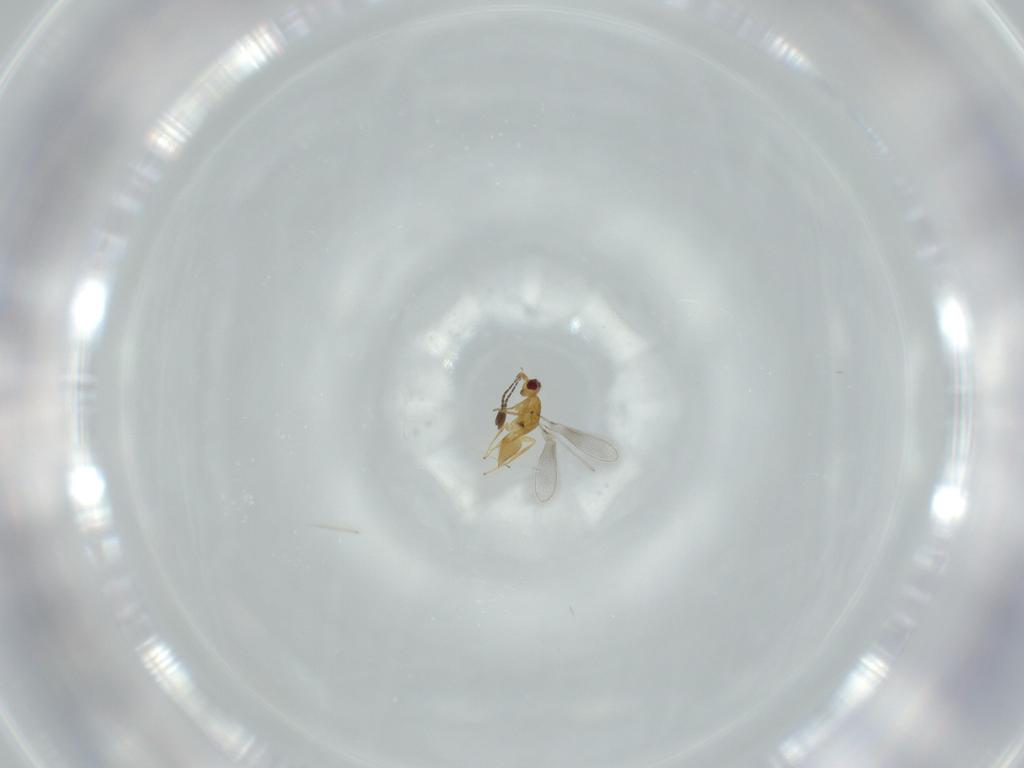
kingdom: Animalia
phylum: Arthropoda
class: Insecta
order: Hymenoptera
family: Mymaridae
